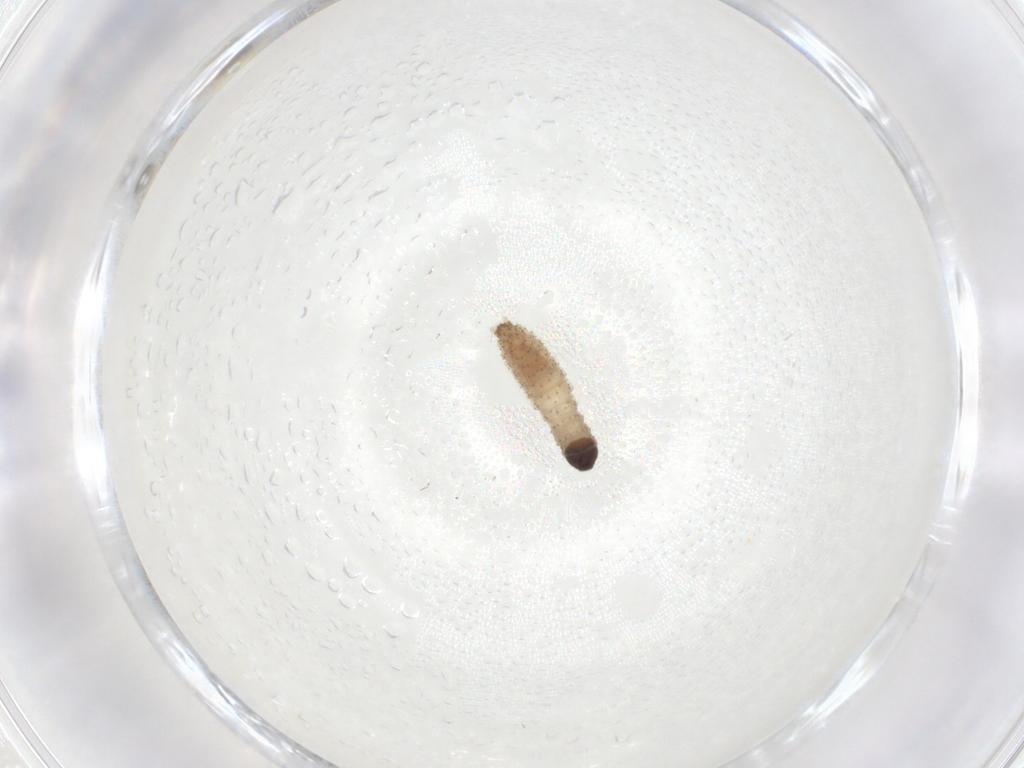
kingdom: Animalia
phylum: Arthropoda
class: Insecta
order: Lepidoptera
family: Noctuidae
